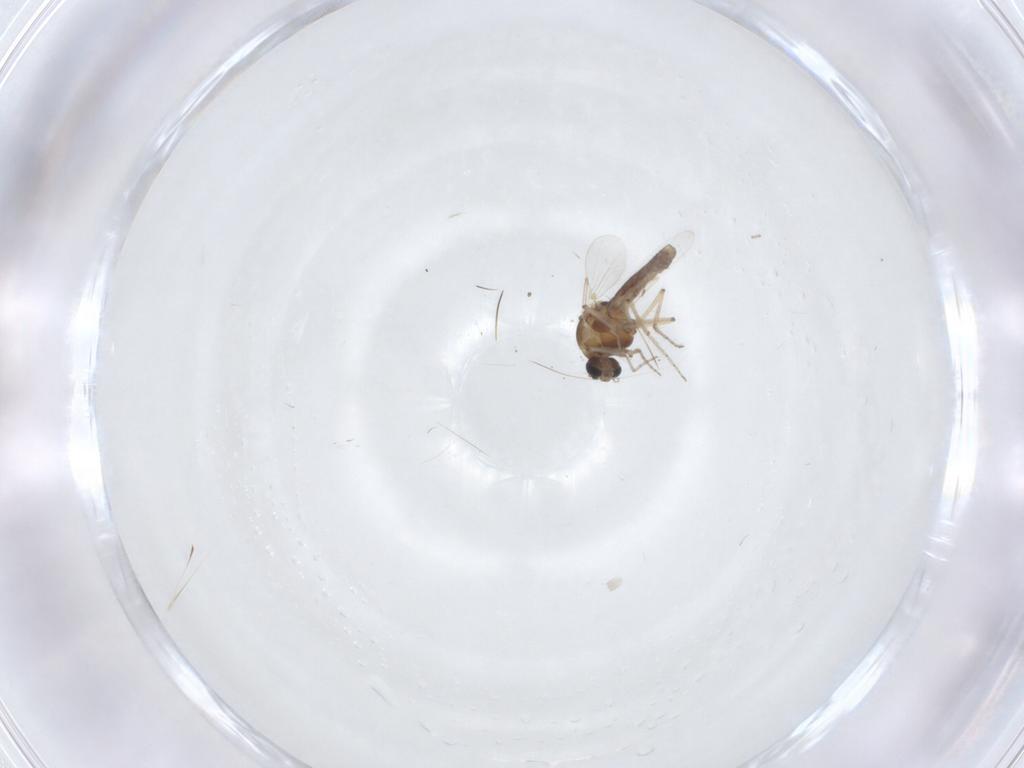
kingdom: Animalia
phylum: Arthropoda
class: Insecta
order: Diptera
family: Ceratopogonidae
